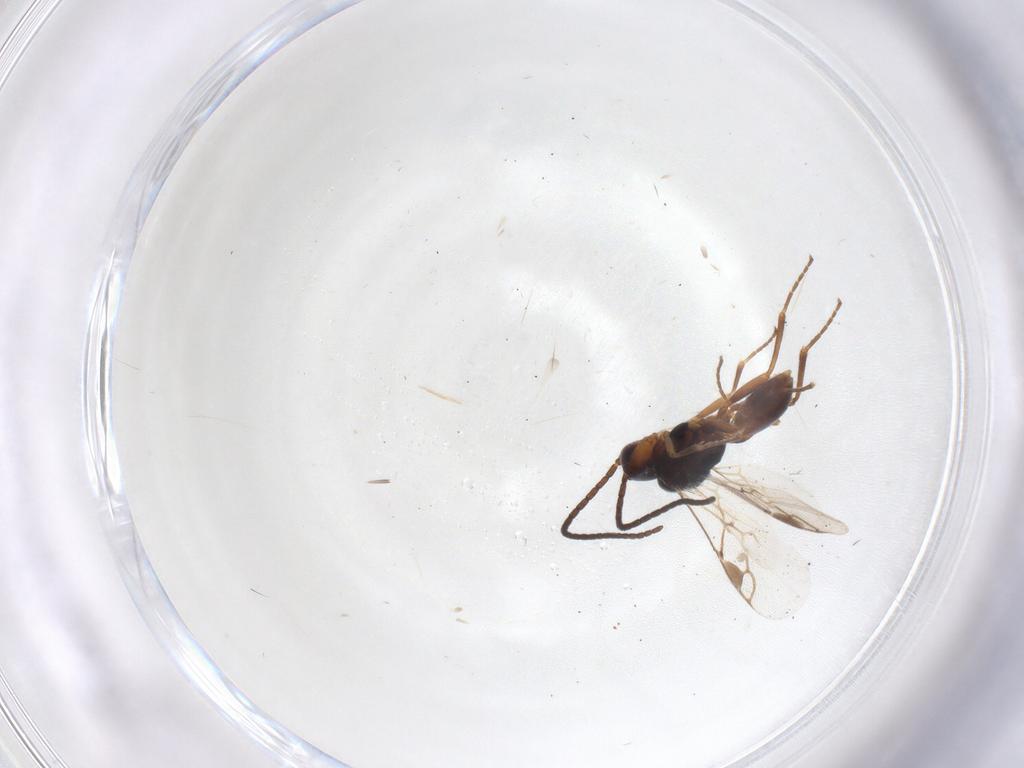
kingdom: Animalia
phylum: Arthropoda
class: Insecta
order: Hymenoptera
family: Braconidae
